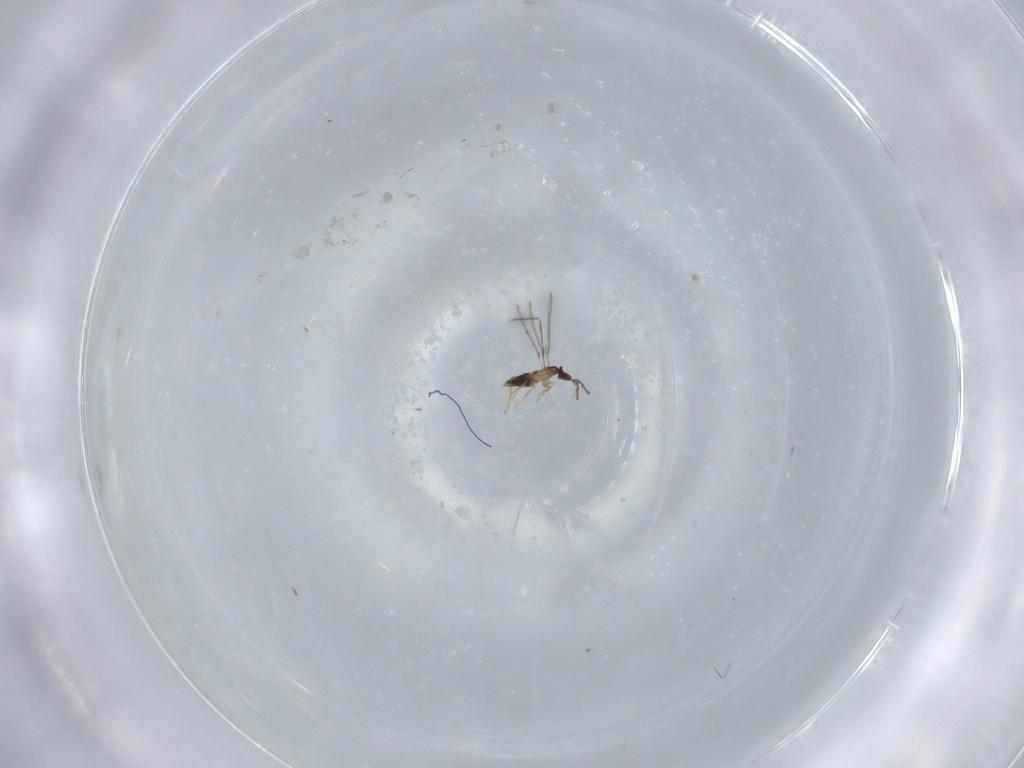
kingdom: Animalia
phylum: Arthropoda
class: Insecta
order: Hymenoptera
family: Mymaridae
